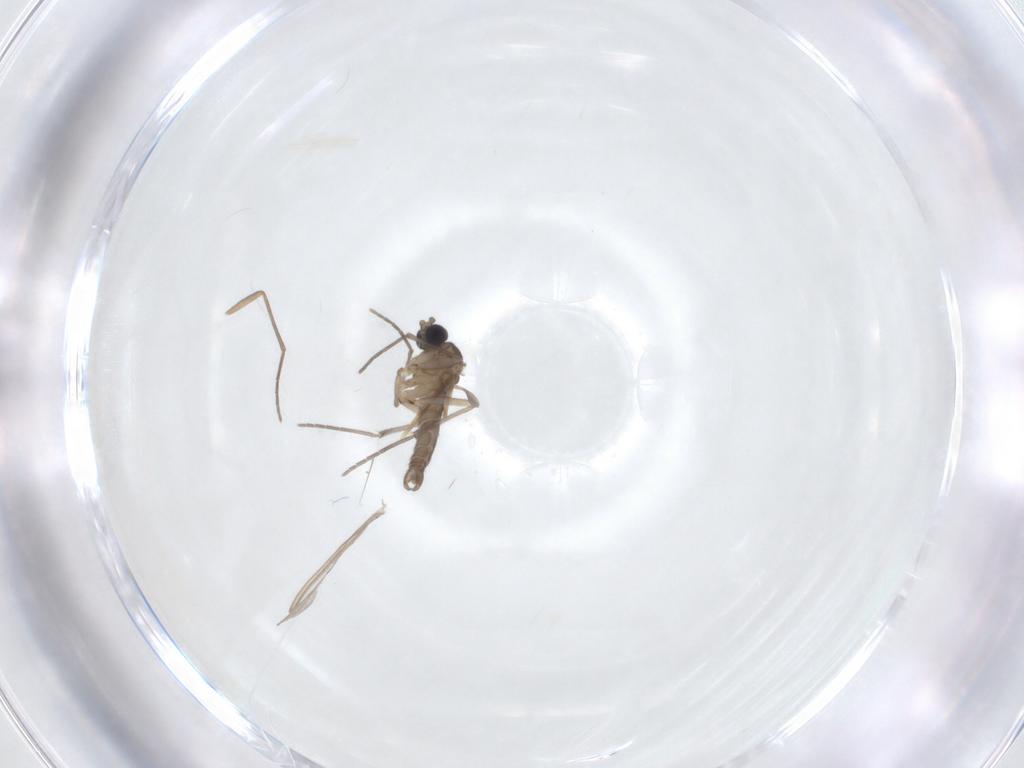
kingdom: Animalia
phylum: Arthropoda
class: Insecta
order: Diptera
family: Sciaridae
